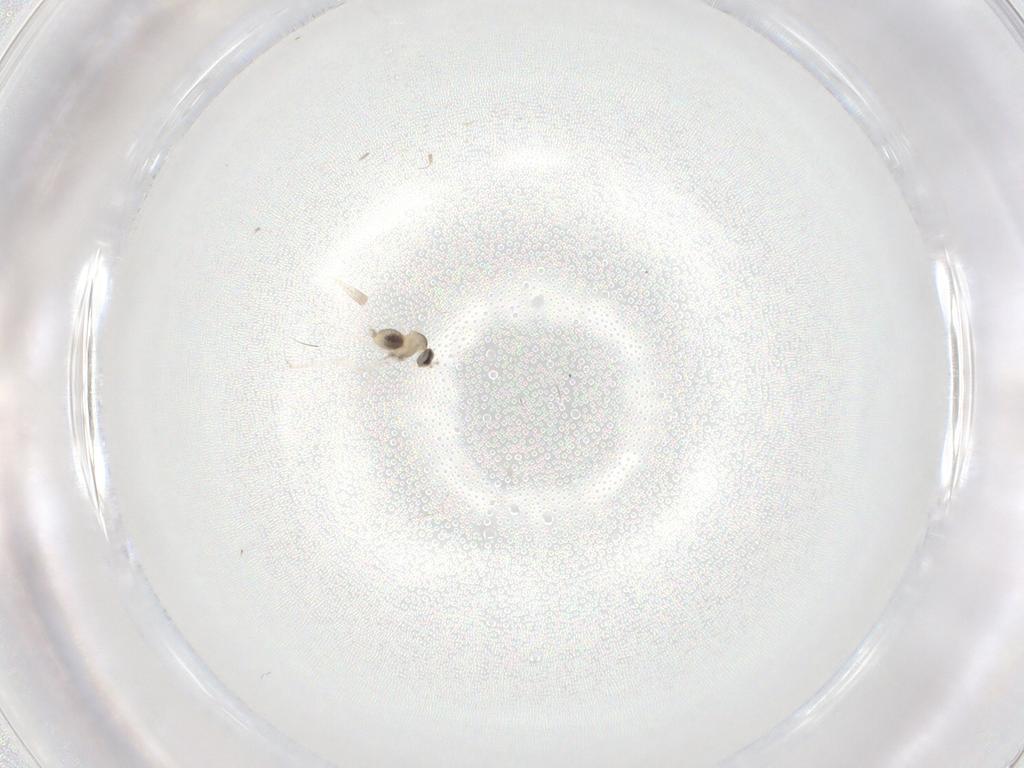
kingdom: Animalia
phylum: Arthropoda
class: Insecta
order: Diptera
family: Cecidomyiidae
